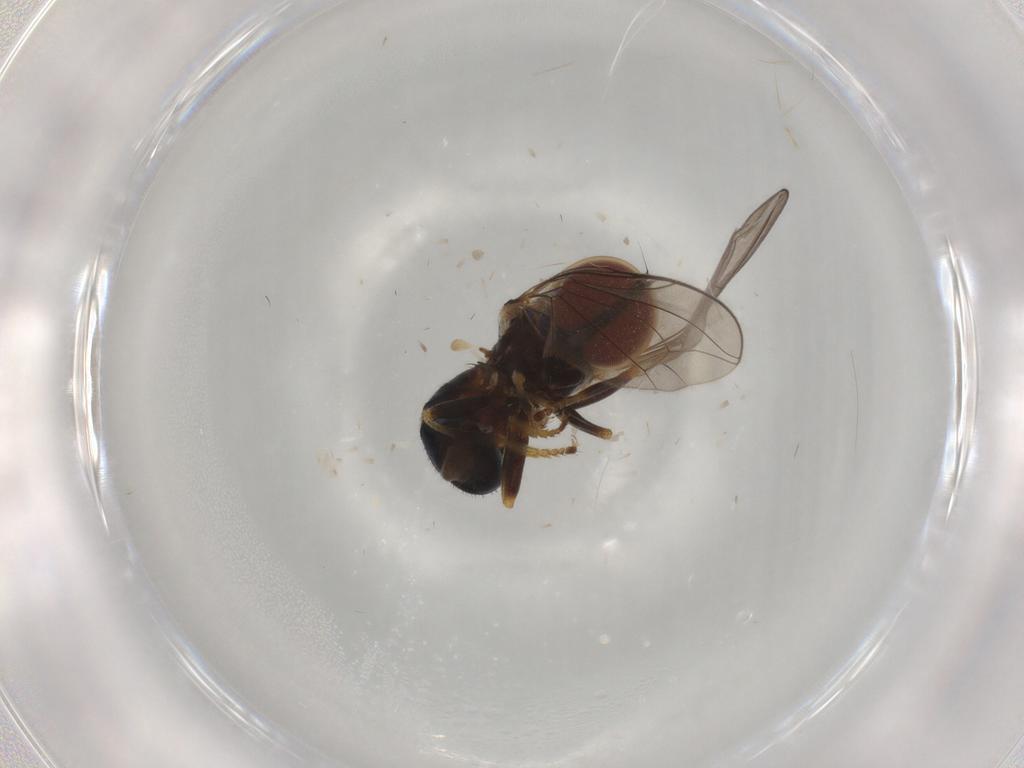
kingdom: Animalia
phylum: Arthropoda
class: Insecta
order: Diptera
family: Pipunculidae
